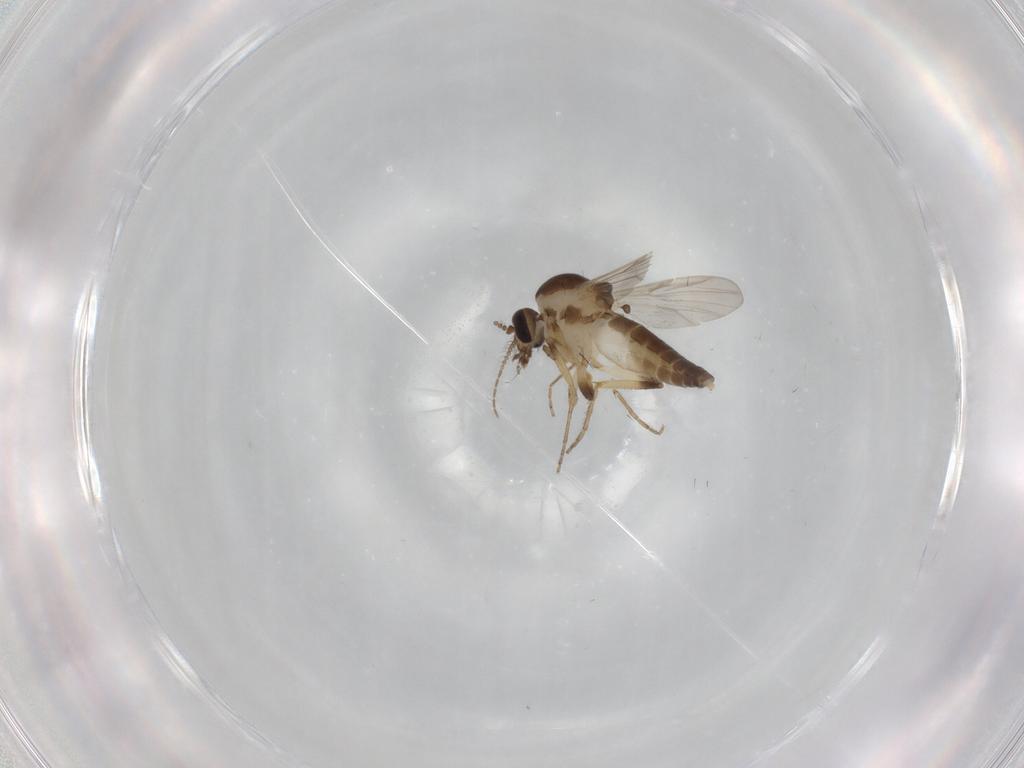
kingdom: Animalia
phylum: Arthropoda
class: Insecta
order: Diptera
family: Ceratopogonidae
